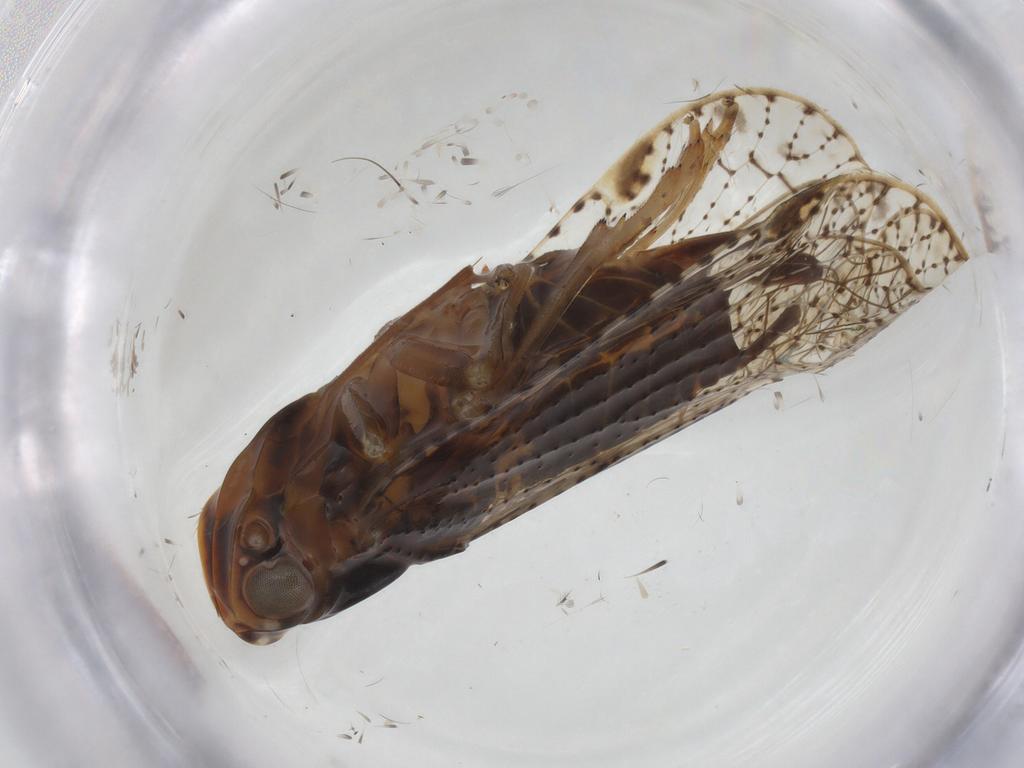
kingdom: Animalia
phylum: Arthropoda
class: Insecta
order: Hemiptera
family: Cixiidae
